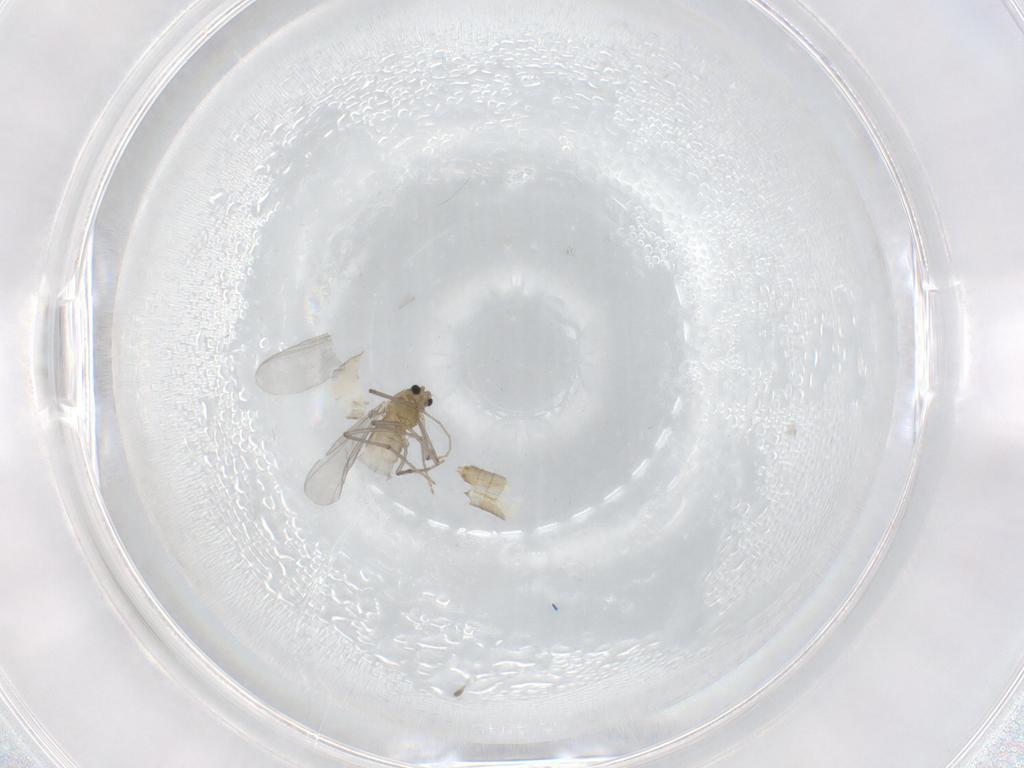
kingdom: Animalia
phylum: Arthropoda
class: Insecta
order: Diptera
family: Chironomidae
